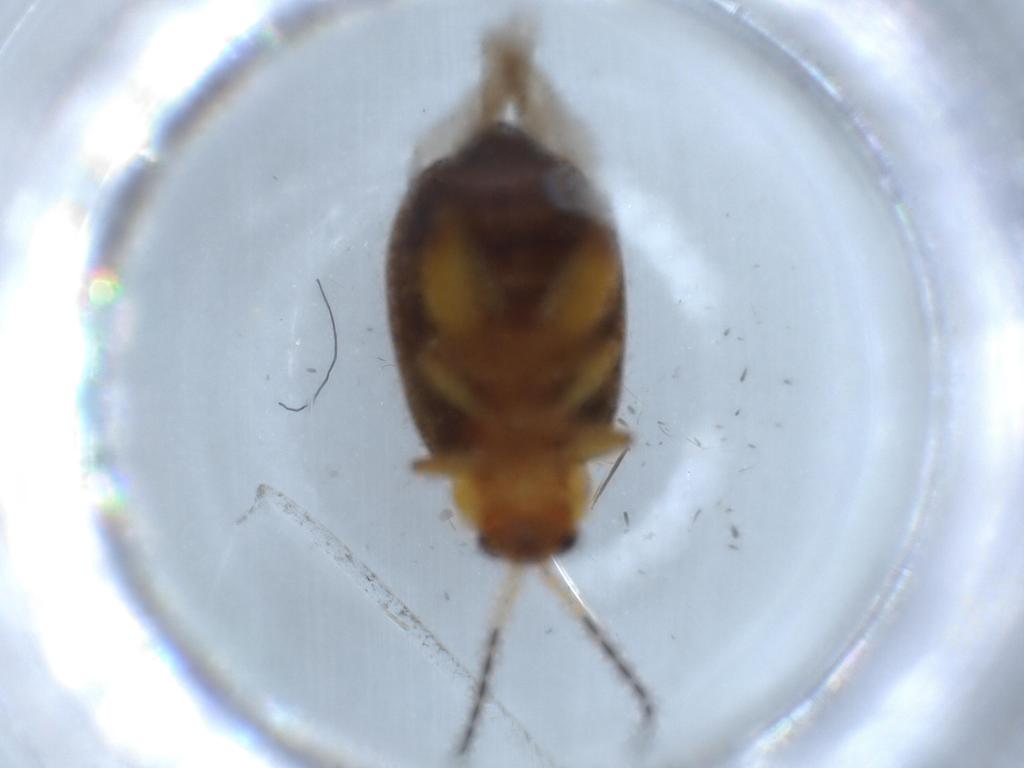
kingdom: Animalia
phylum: Arthropoda
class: Insecta
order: Coleoptera
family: Chrysomelidae
